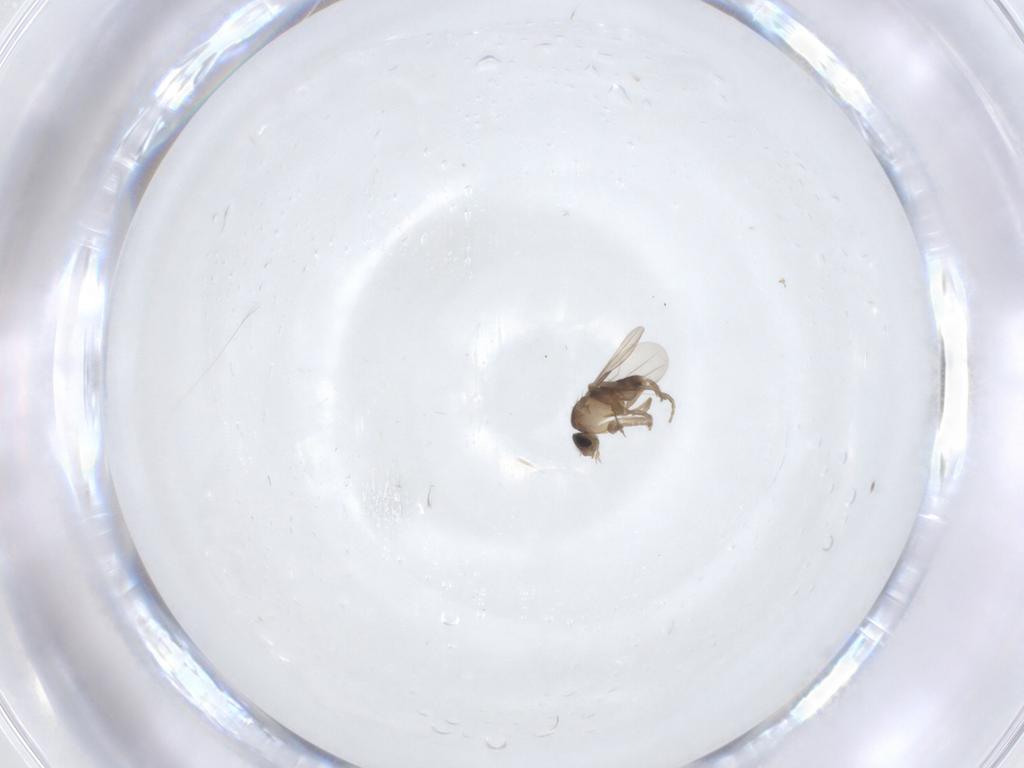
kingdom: Animalia
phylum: Arthropoda
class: Insecta
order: Diptera
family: Phoridae
